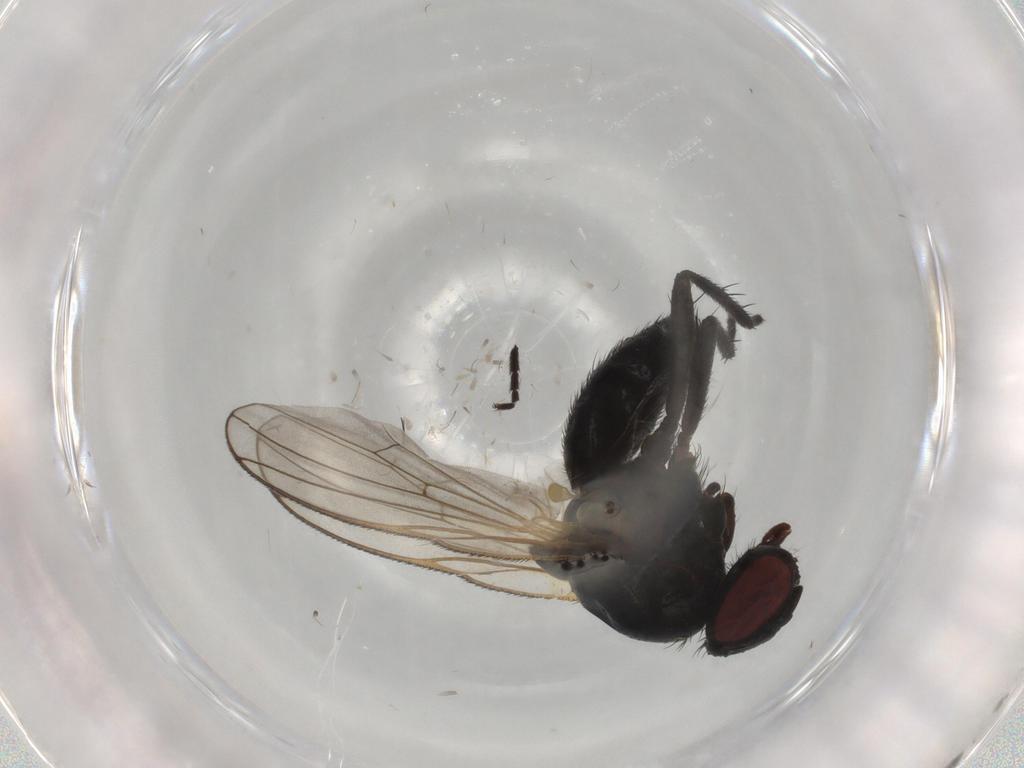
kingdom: Animalia
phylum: Arthropoda
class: Insecta
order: Diptera
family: Fannia
